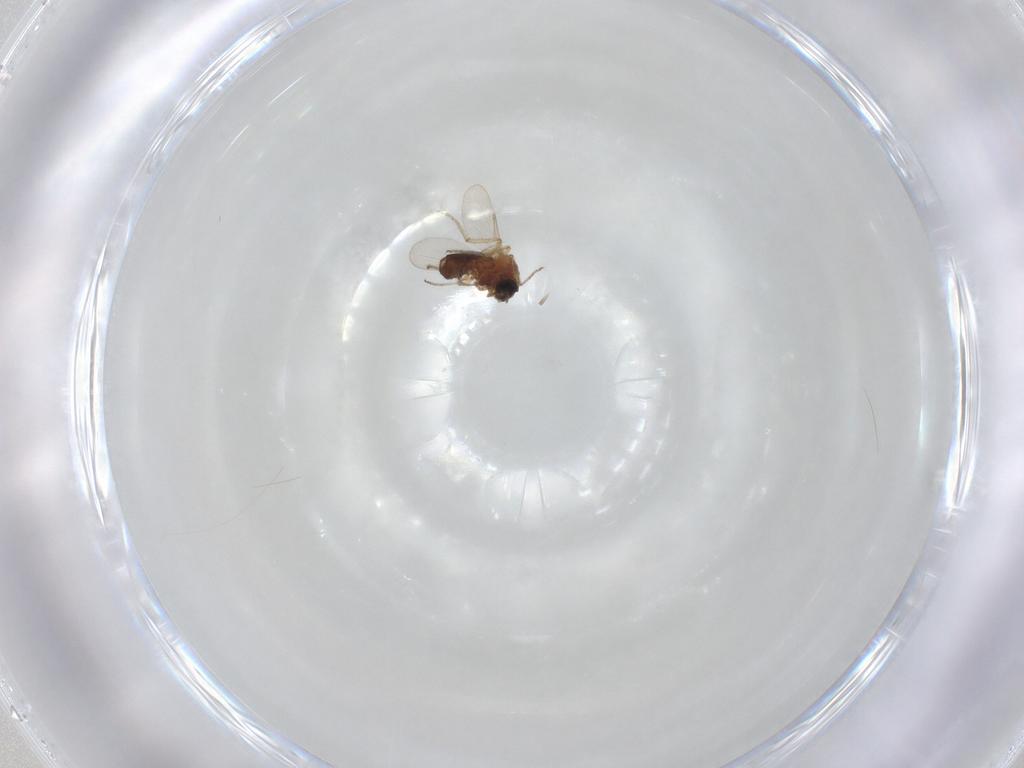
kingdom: Animalia
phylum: Arthropoda
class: Insecta
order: Diptera
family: Ceratopogonidae
